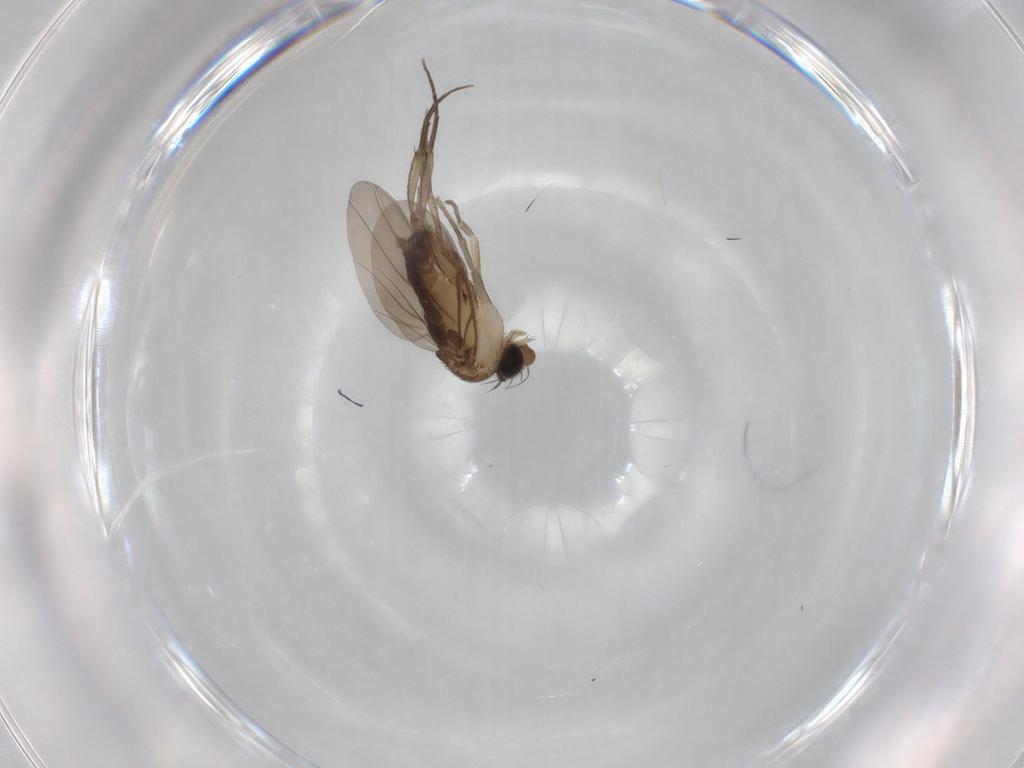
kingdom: Animalia
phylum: Arthropoda
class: Insecta
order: Diptera
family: Phoridae
